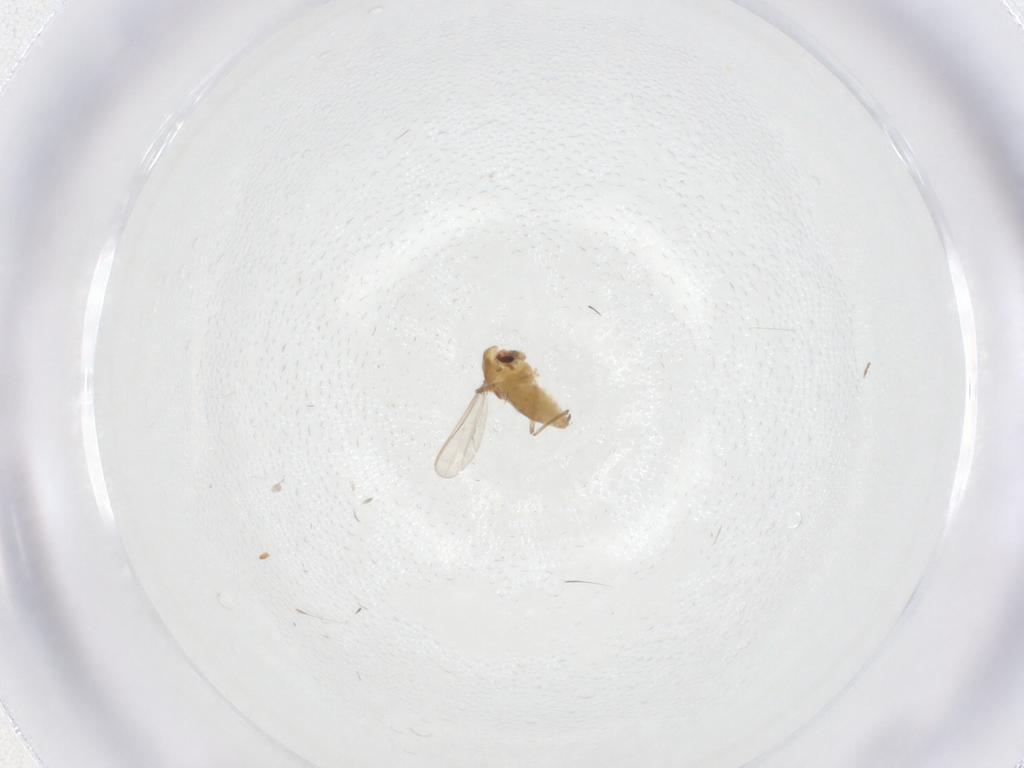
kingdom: Animalia
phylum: Arthropoda
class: Insecta
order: Diptera
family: Chironomidae
